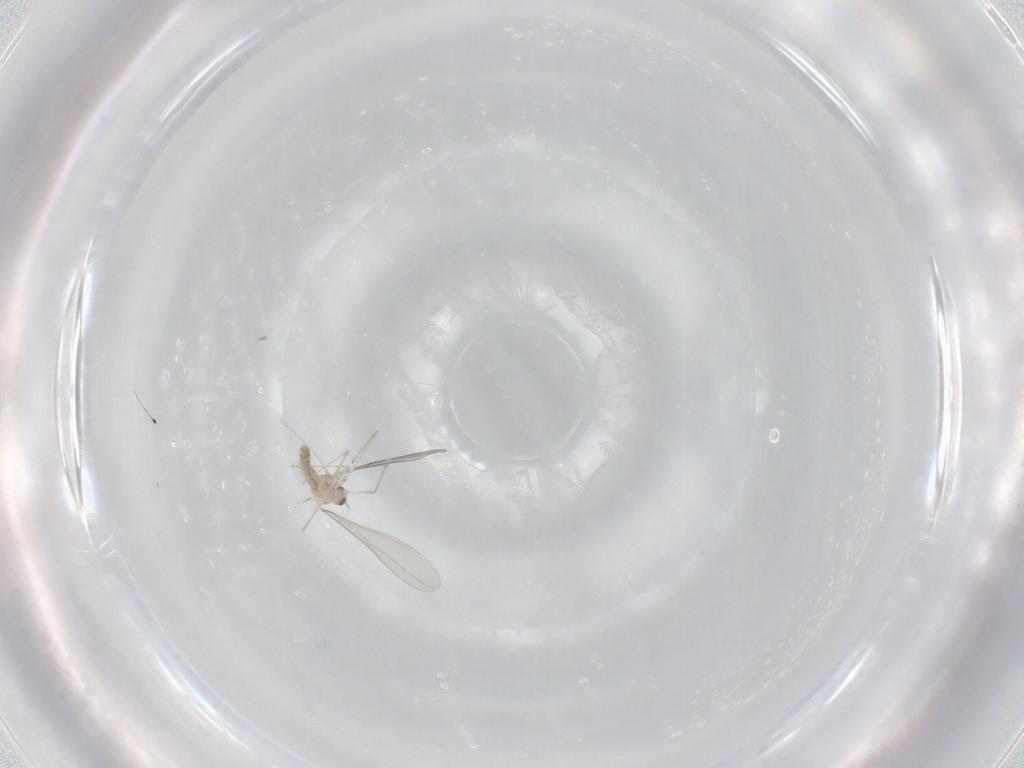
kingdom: Animalia
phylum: Arthropoda
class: Insecta
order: Diptera
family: Cecidomyiidae
